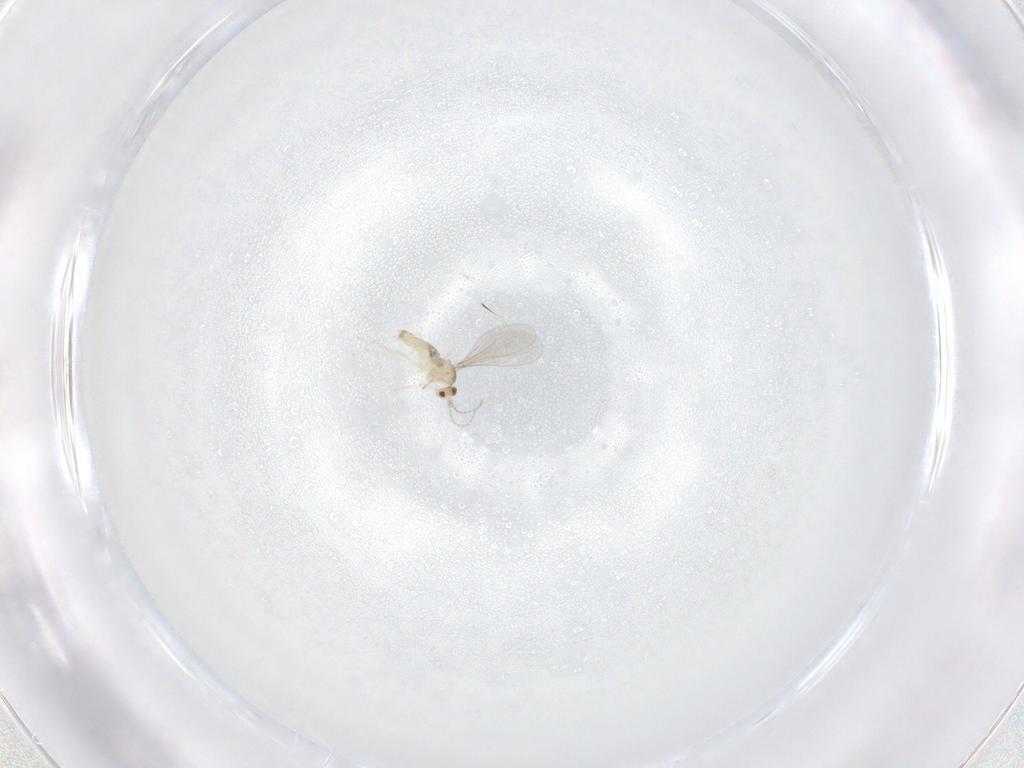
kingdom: Animalia
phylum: Arthropoda
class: Insecta
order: Diptera
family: Cecidomyiidae
